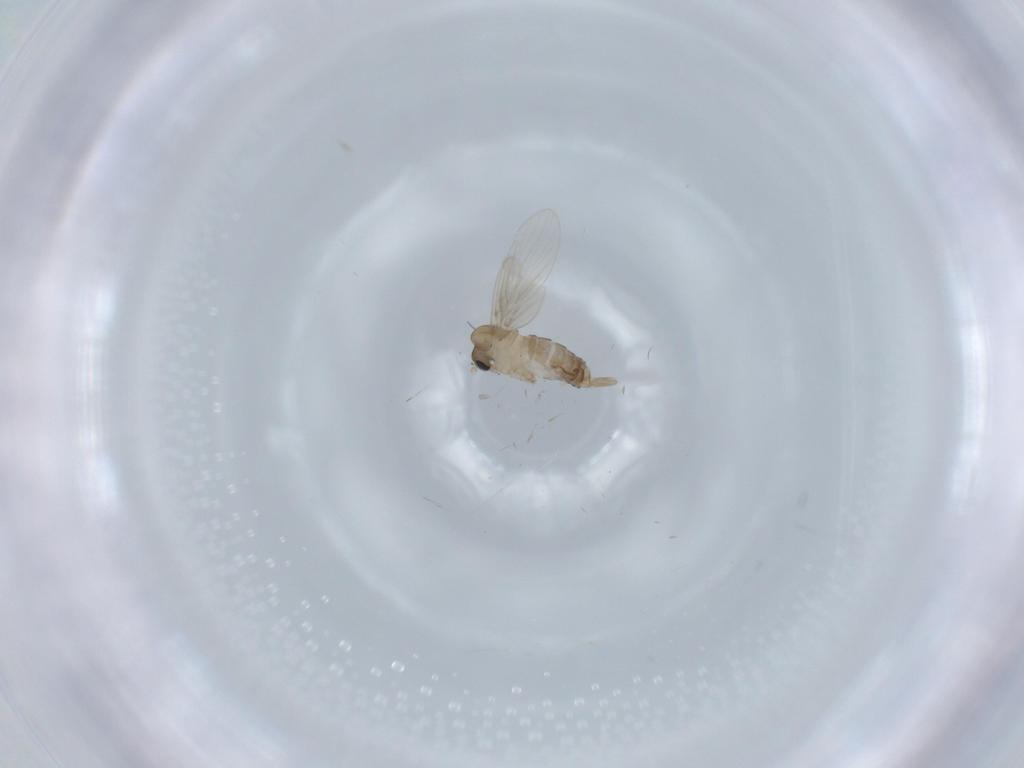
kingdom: Animalia
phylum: Arthropoda
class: Insecta
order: Diptera
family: Psychodidae
